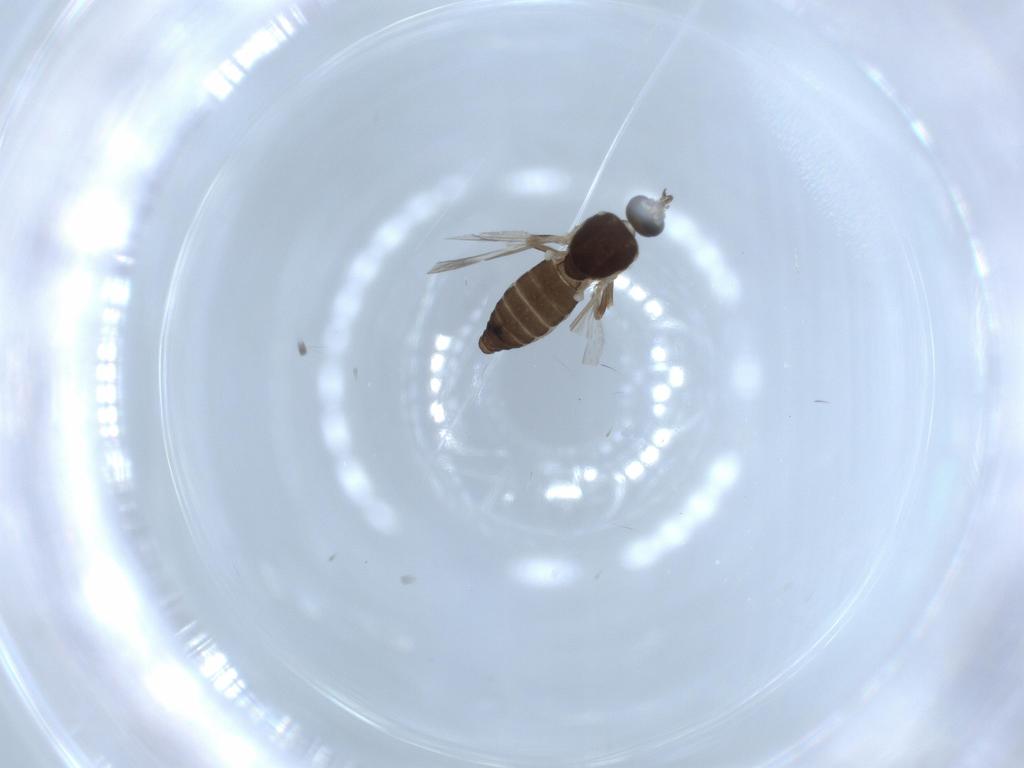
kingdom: Animalia
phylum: Arthropoda
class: Insecta
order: Diptera
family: Ceratopogonidae
